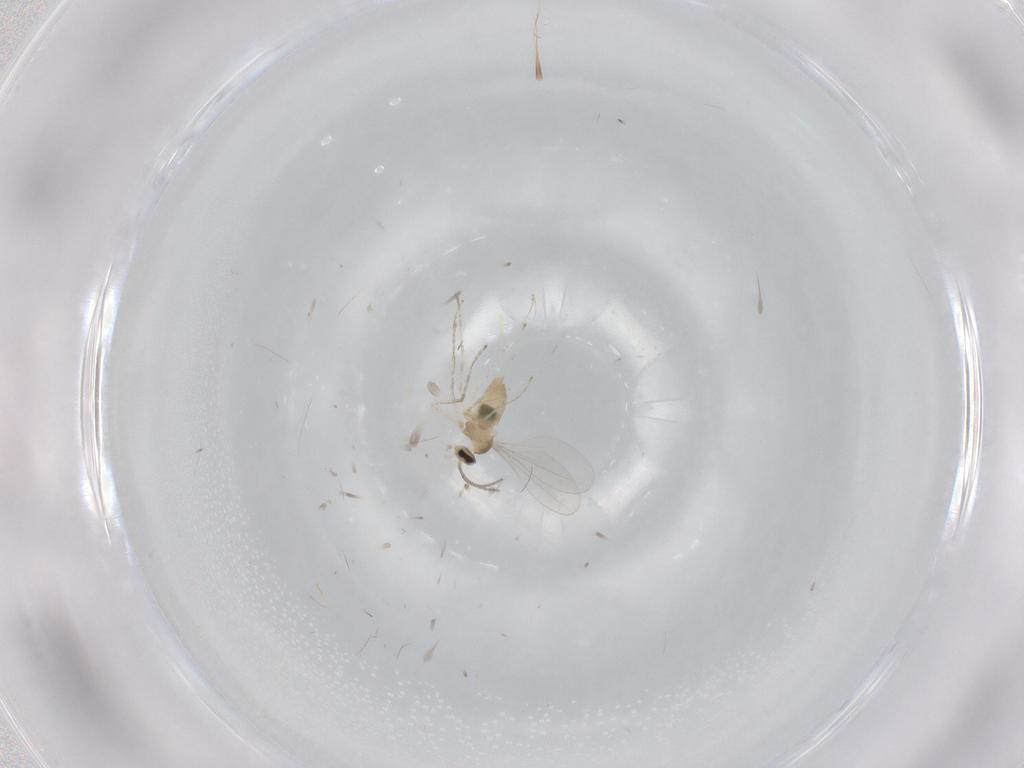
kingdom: Animalia
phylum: Arthropoda
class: Insecta
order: Diptera
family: Cecidomyiidae
